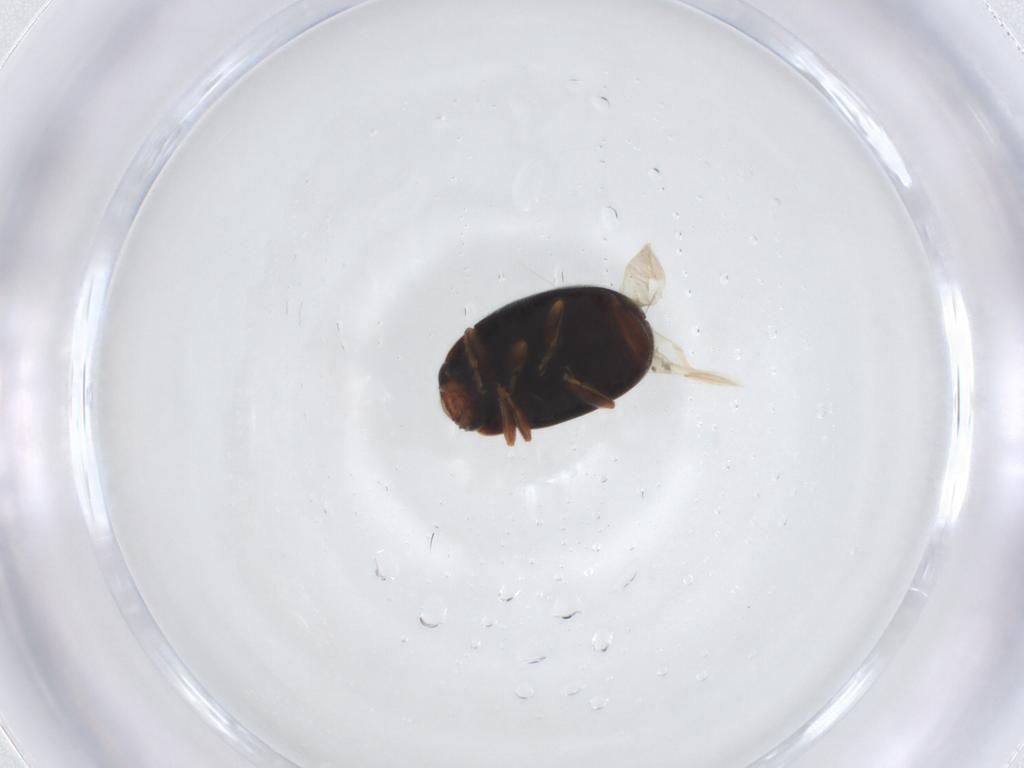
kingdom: Animalia
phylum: Arthropoda
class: Insecta
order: Coleoptera
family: Coccinellidae
